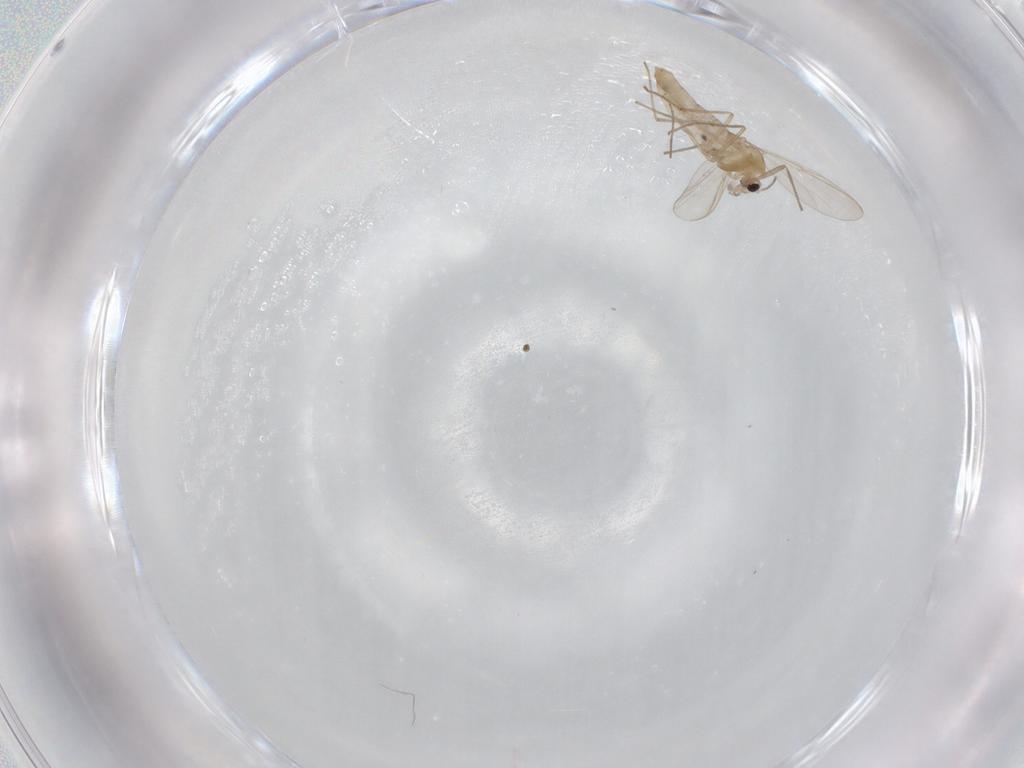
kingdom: Animalia
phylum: Arthropoda
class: Insecta
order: Diptera
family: Chironomidae
